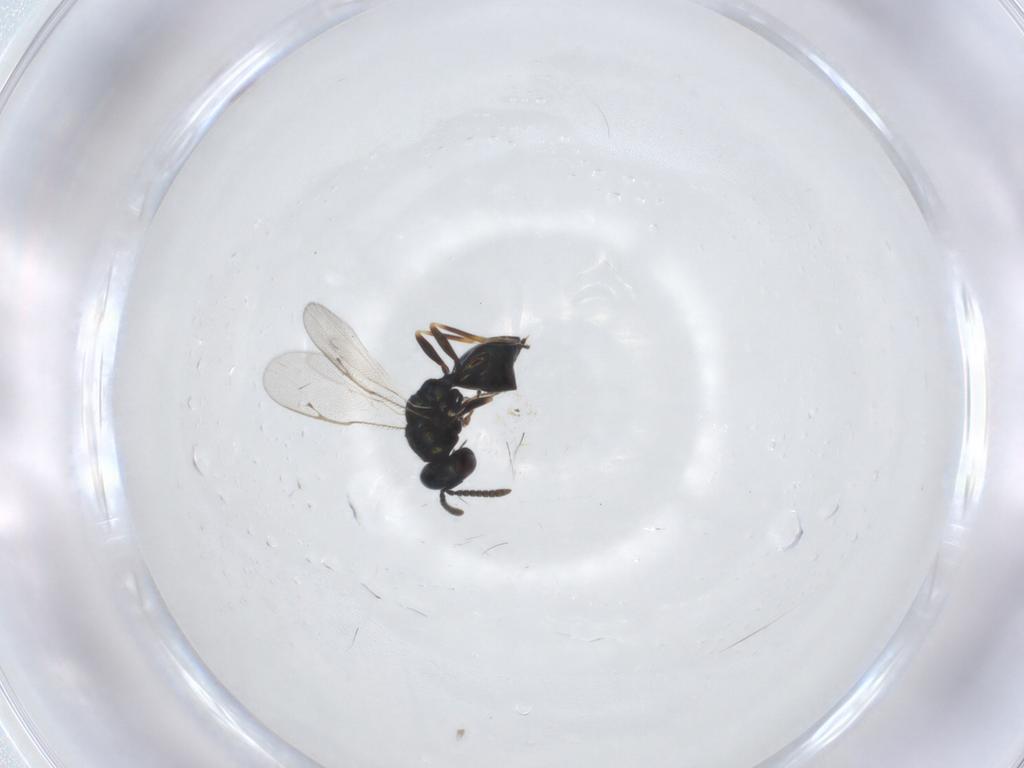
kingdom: Animalia
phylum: Arthropoda
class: Insecta
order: Hymenoptera
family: Pteromalidae
